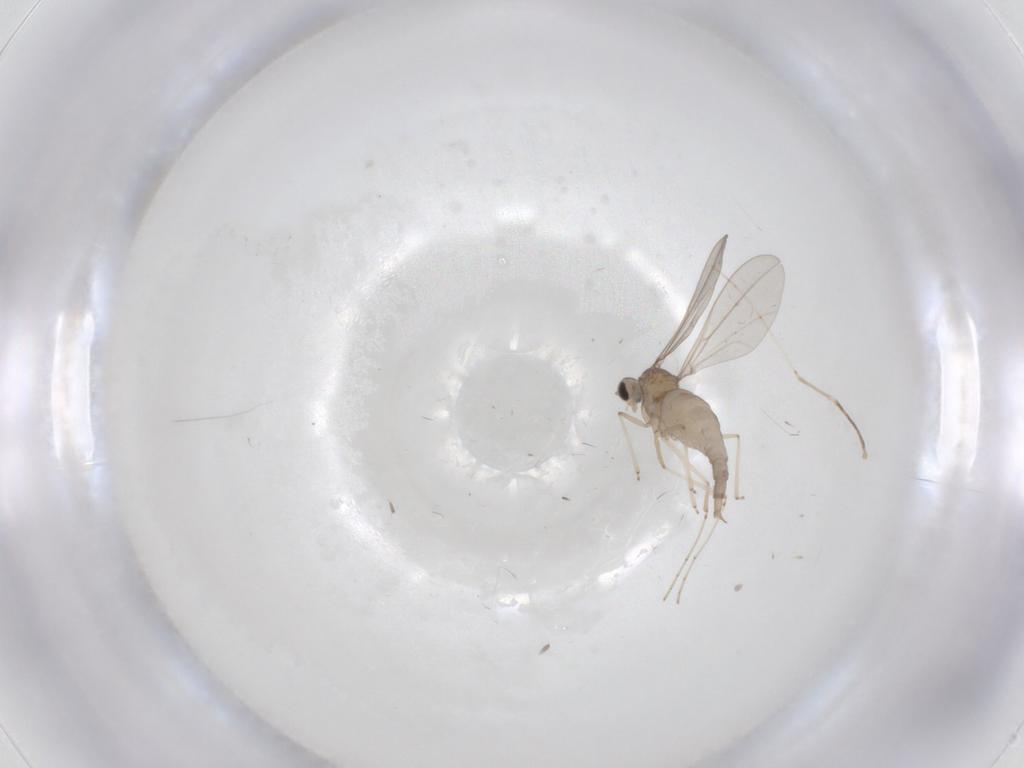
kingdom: Animalia
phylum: Arthropoda
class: Insecta
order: Diptera
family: Cecidomyiidae
